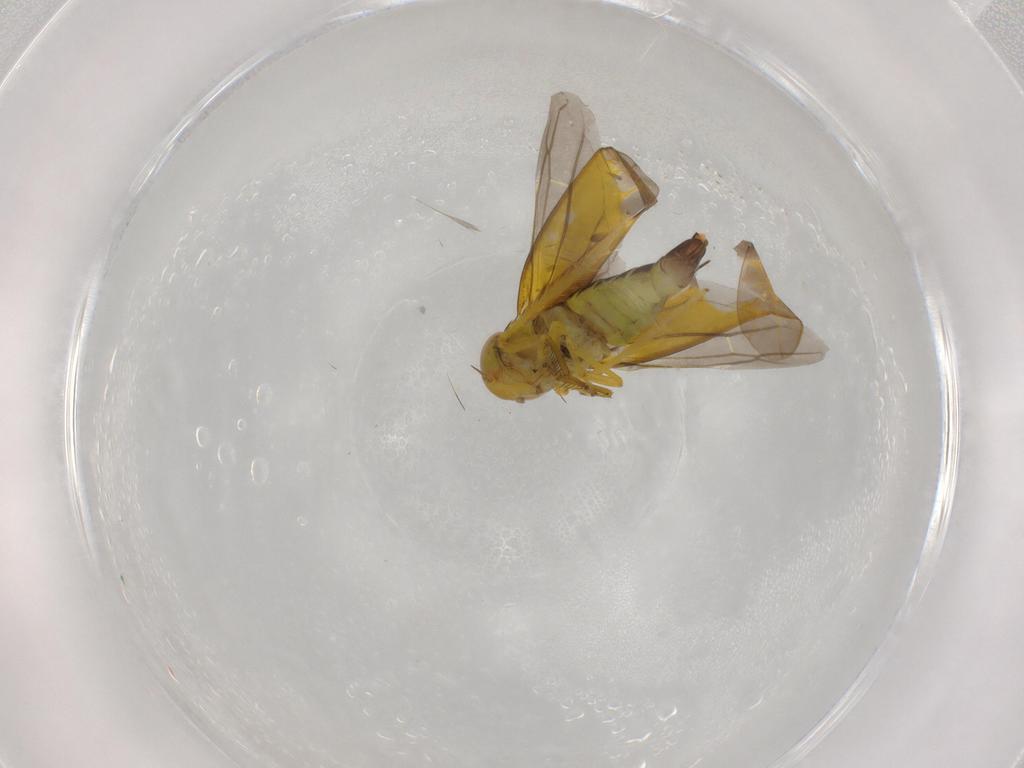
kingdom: Animalia
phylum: Arthropoda
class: Insecta
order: Hemiptera
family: Cicadellidae
